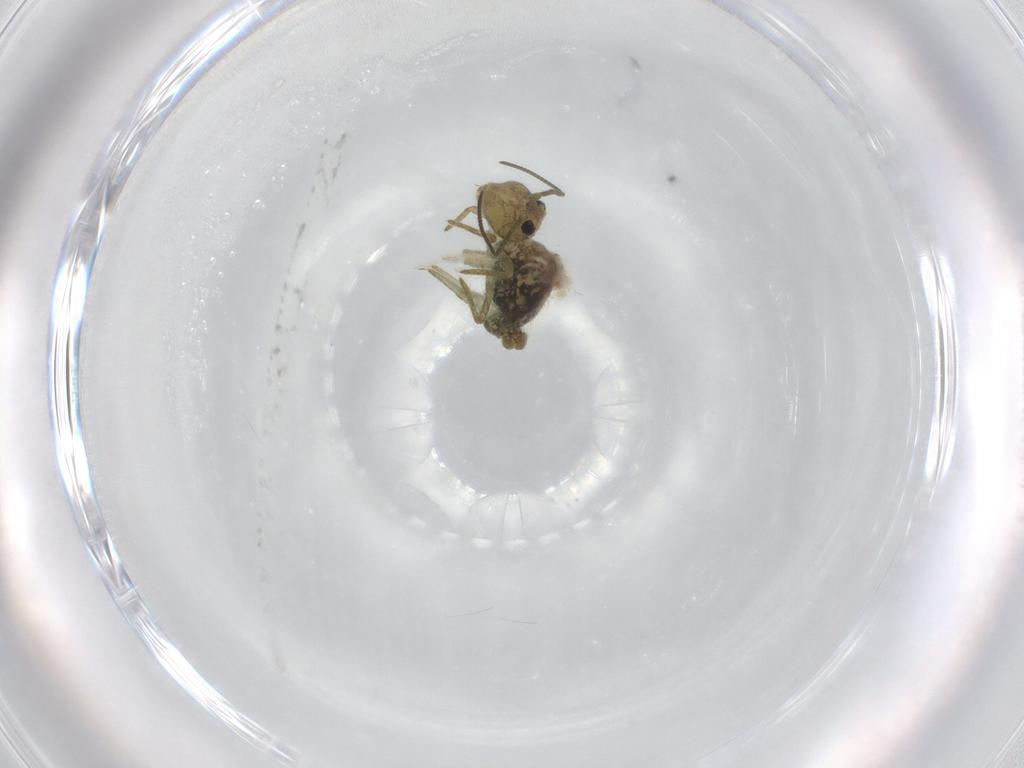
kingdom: Animalia
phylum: Arthropoda
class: Collembola
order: Symphypleona
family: Sminthuridae
